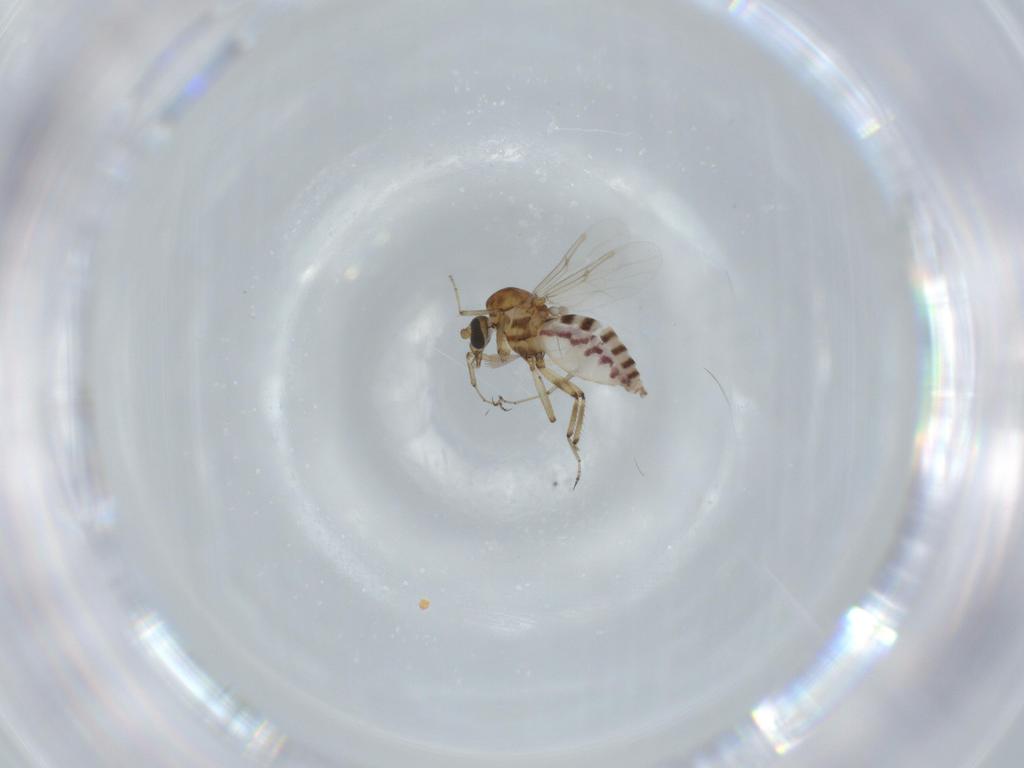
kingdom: Animalia
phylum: Arthropoda
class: Insecta
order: Diptera
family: Ceratopogonidae
